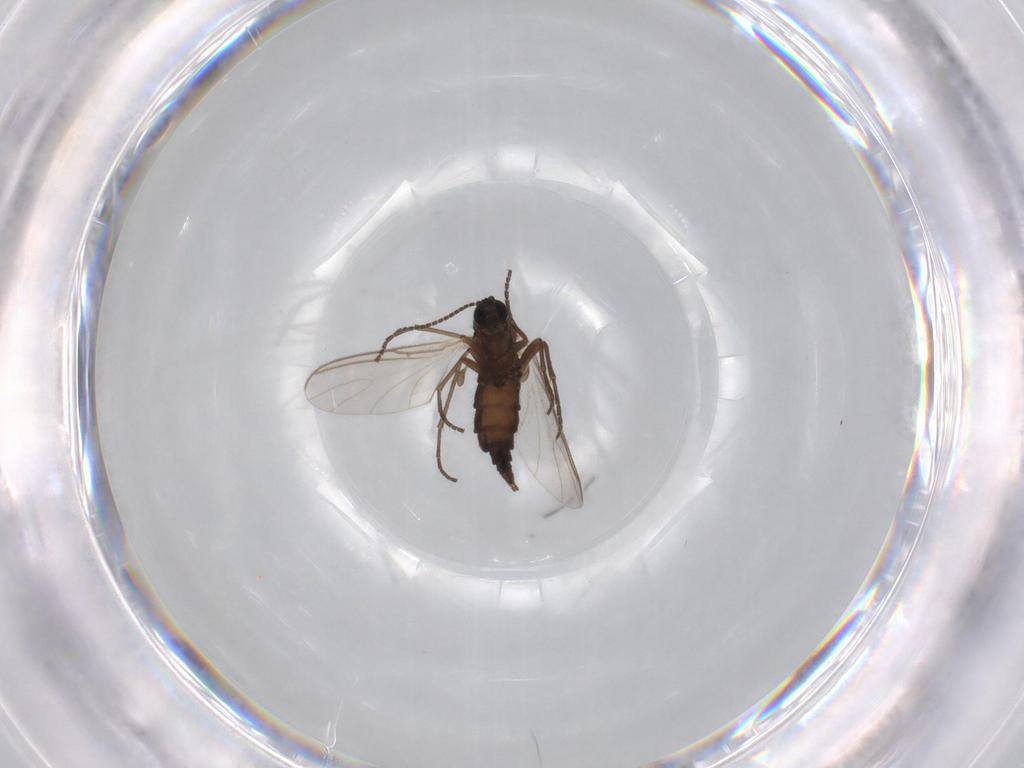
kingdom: Animalia
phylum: Arthropoda
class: Insecta
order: Diptera
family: Sciaridae
